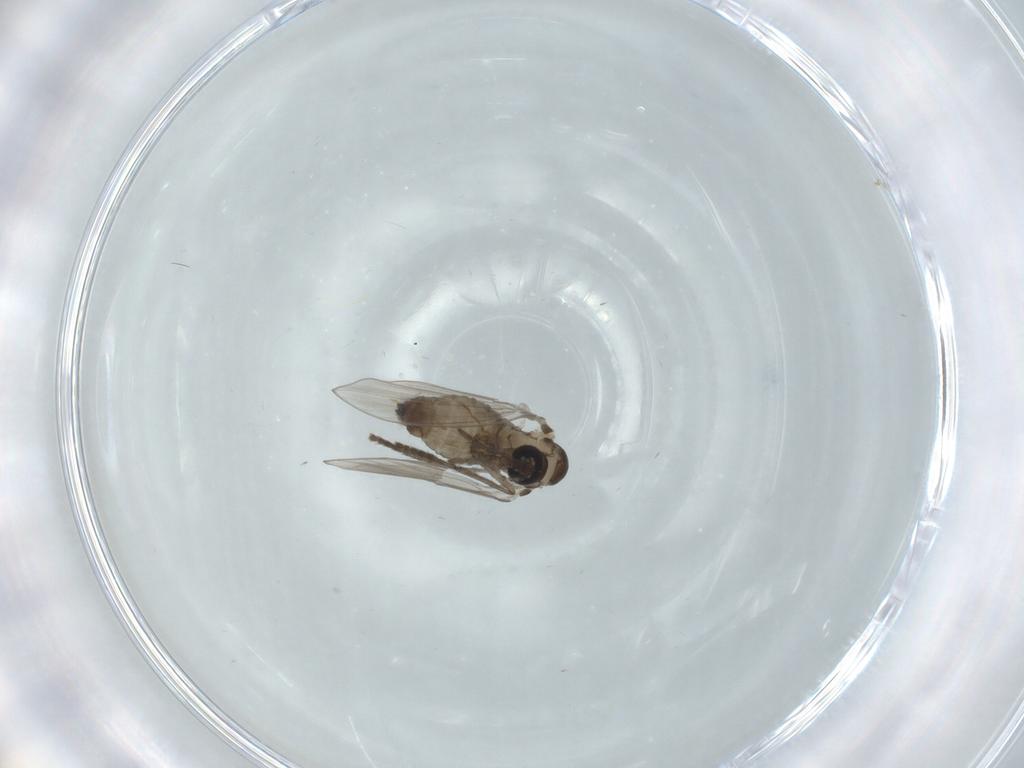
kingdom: Animalia
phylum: Arthropoda
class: Insecta
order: Diptera
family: Psychodidae
